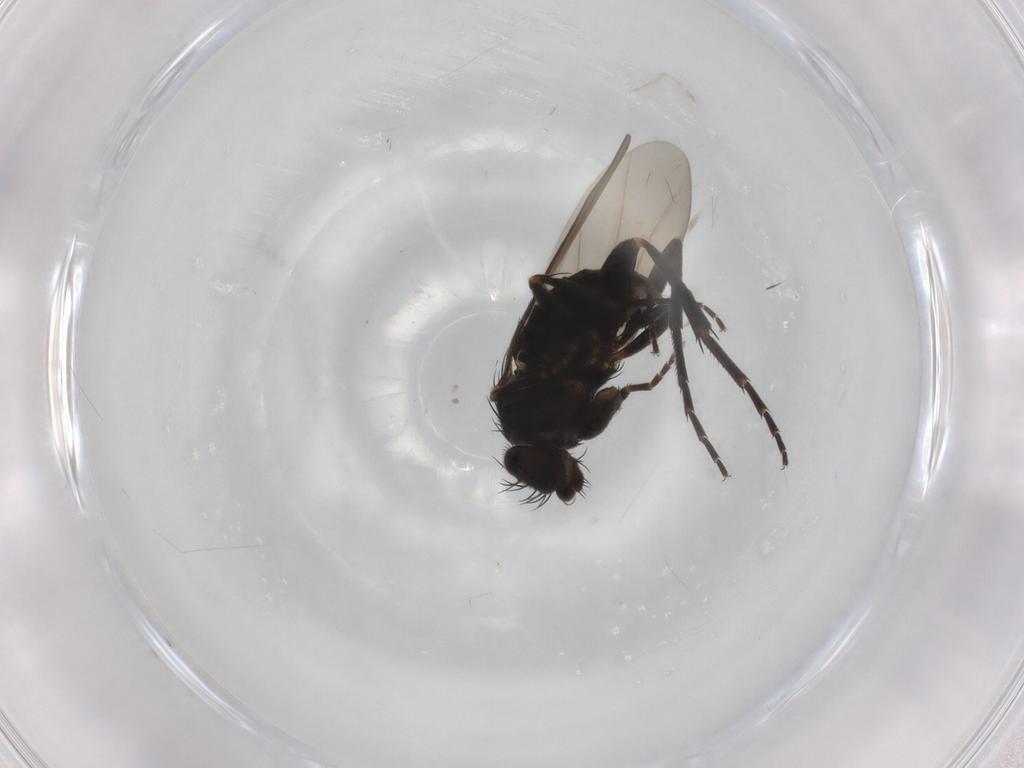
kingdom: Animalia
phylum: Arthropoda
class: Insecta
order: Diptera
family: Phoridae
